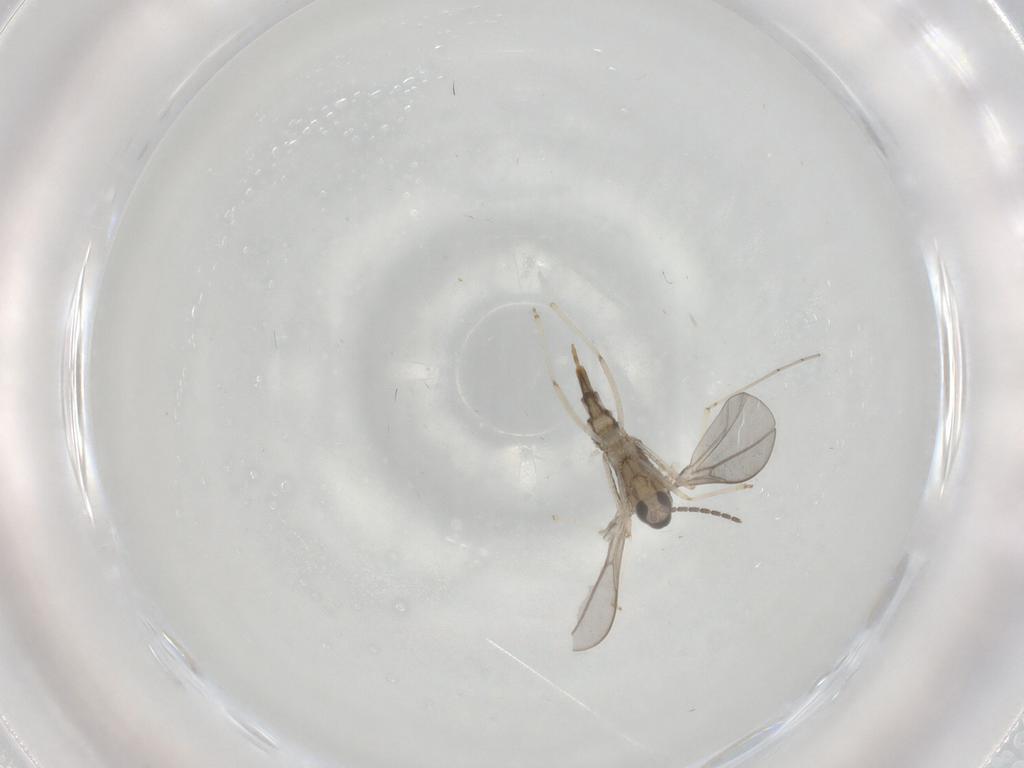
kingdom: Animalia
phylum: Arthropoda
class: Insecta
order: Diptera
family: Cecidomyiidae
